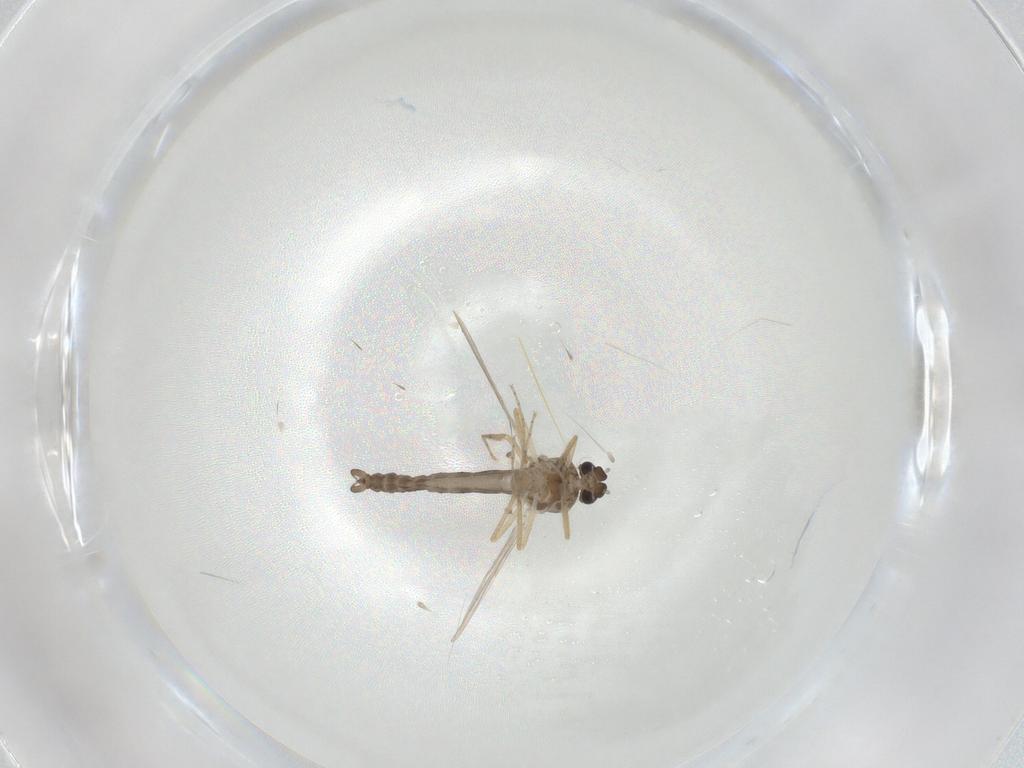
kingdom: Animalia
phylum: Arthropoda
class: Insecta
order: Diptera
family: Ceratopogonidae
